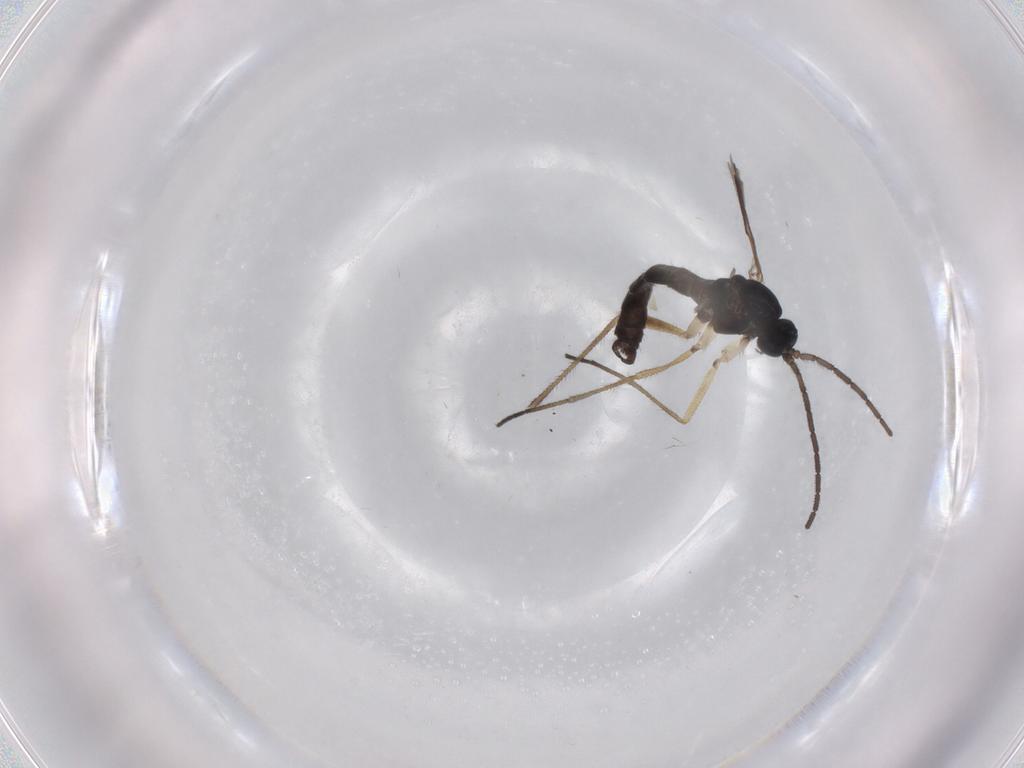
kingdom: Animalia
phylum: Arthropoda
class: Insecta
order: Diptera
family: Sciaridae
